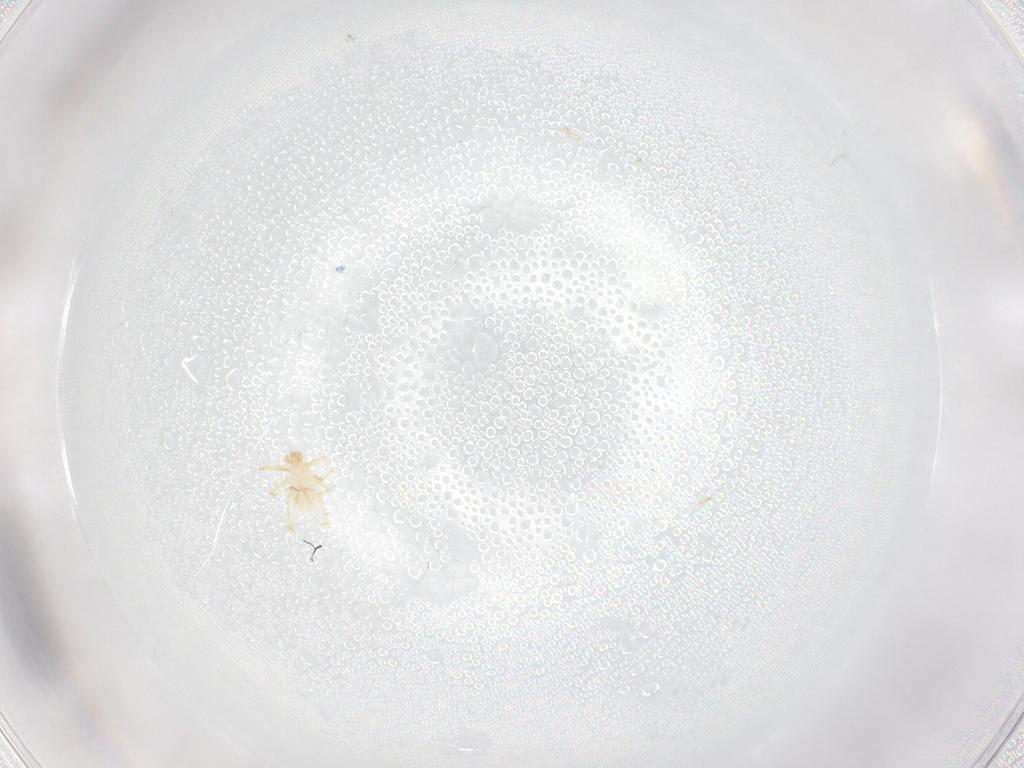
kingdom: Animalia
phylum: Arthropoda
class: Arachnida
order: Trombidiformes
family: Erythraeidae
